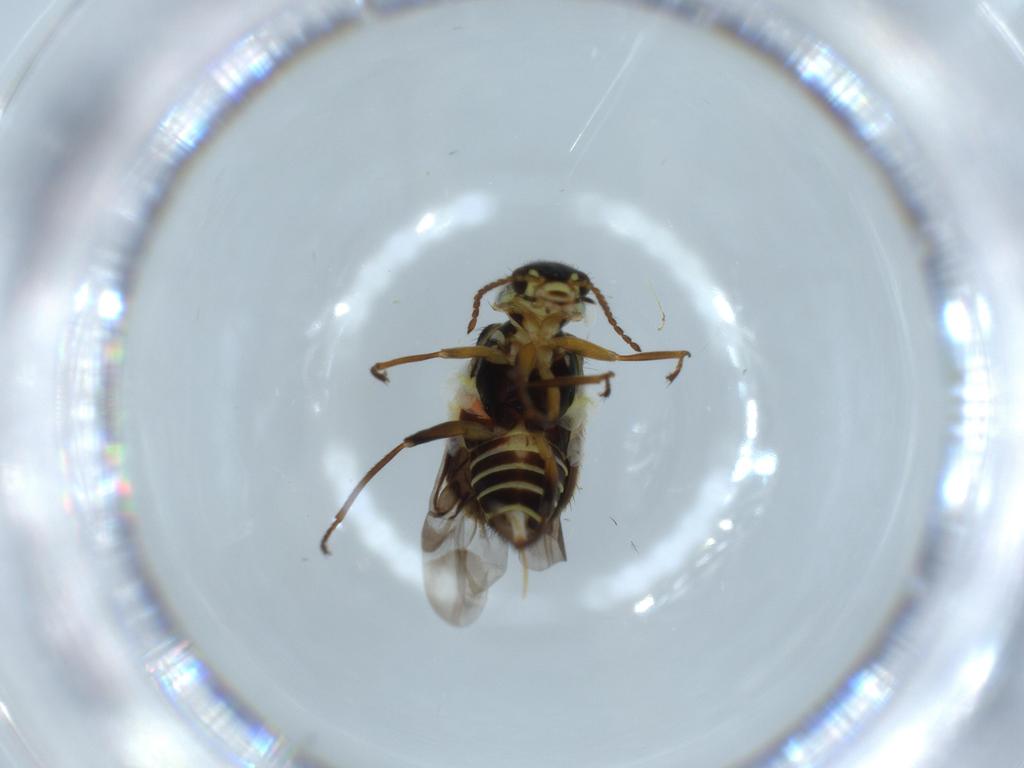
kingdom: Animalia
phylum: Arthropoda
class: Insecta
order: Coleoptera
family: Melyridae
